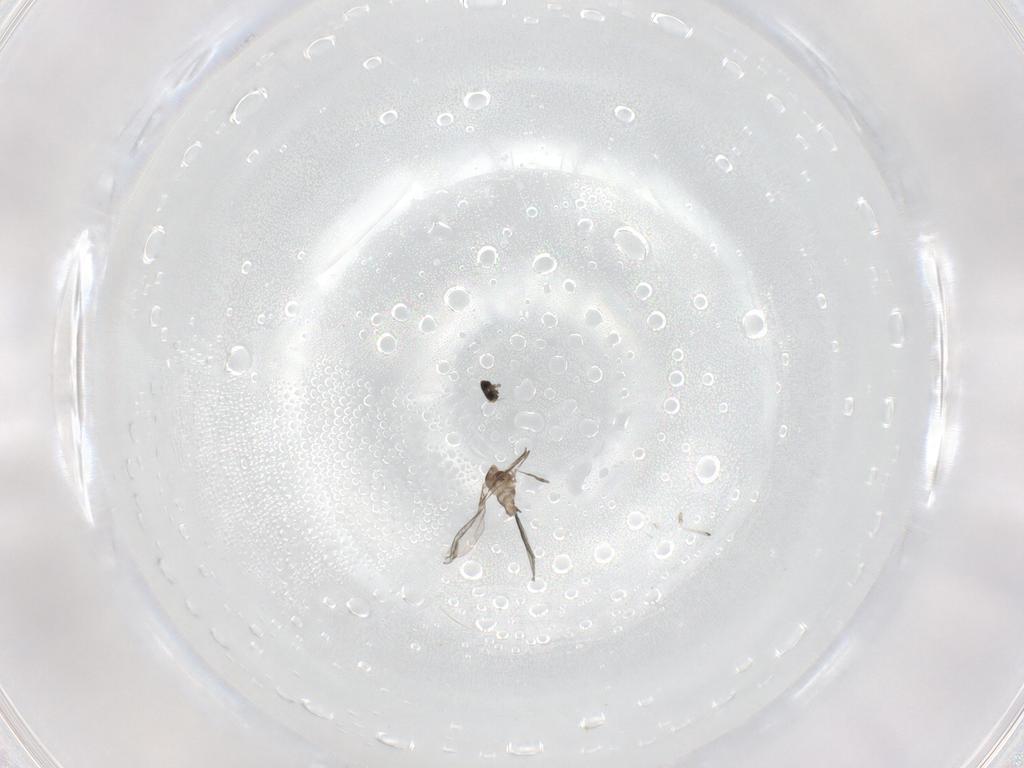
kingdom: Animalia
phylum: Arthropoda
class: Insecta
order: Diptera
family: Cecidomyiidae
